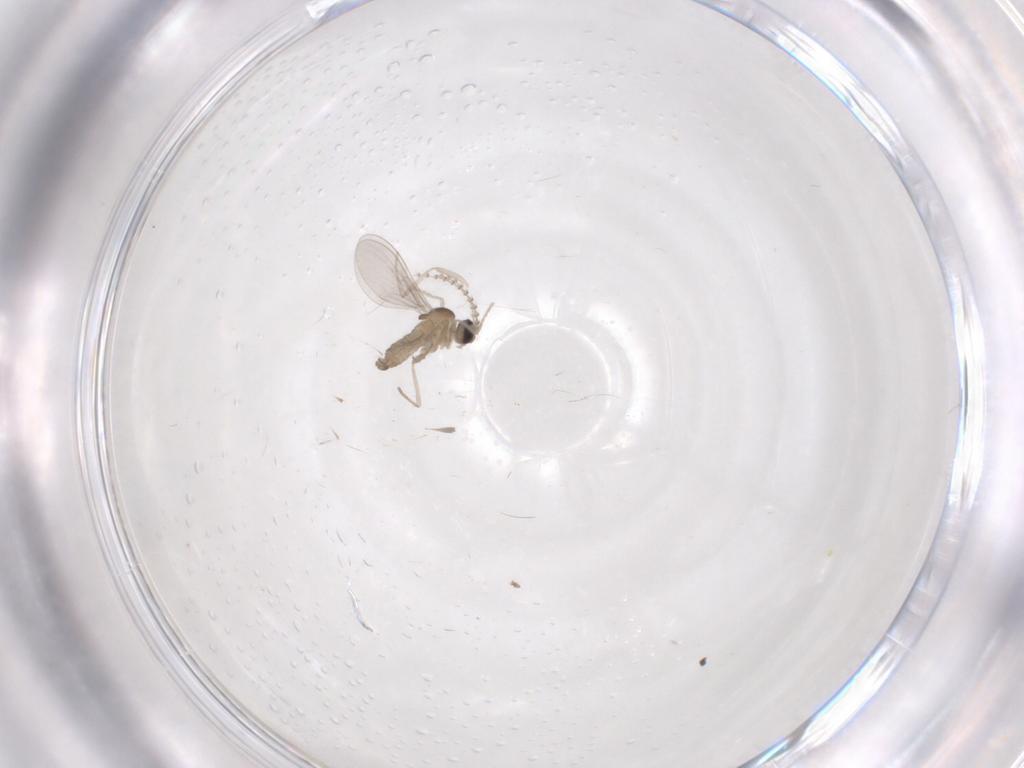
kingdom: Animalia
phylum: Arthropoda
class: Insecta
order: Diptera
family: Cecidomyiidae
